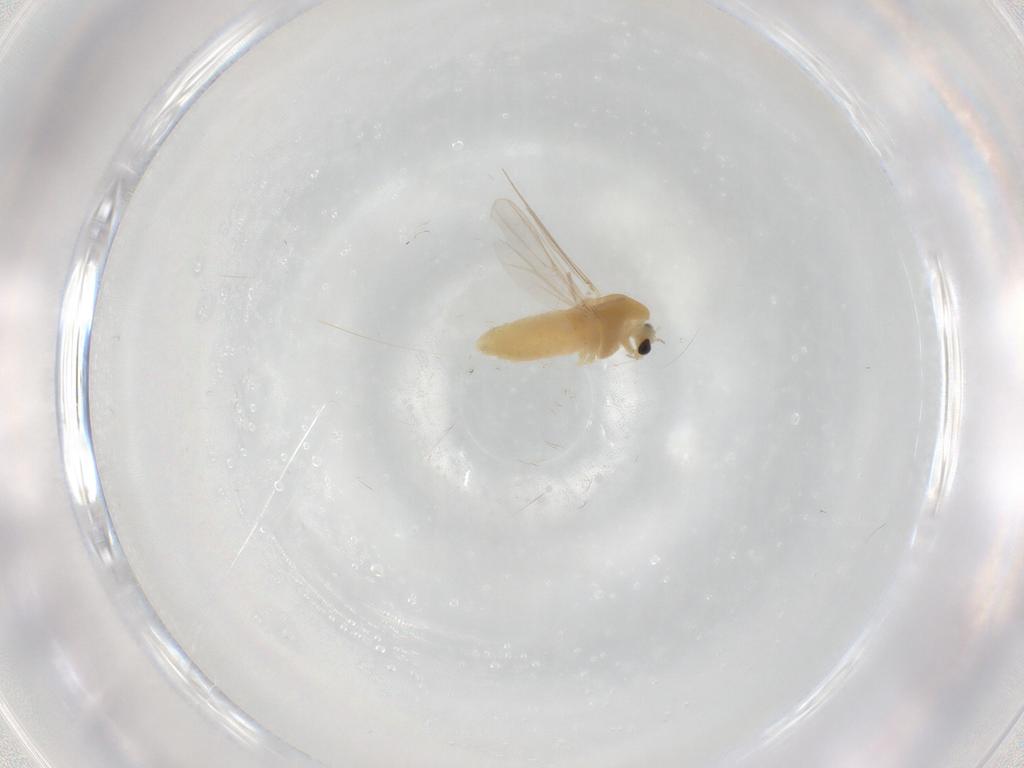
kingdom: Animalia
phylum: Arthropoda
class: Insecta
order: Diptera
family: Chironomidae
